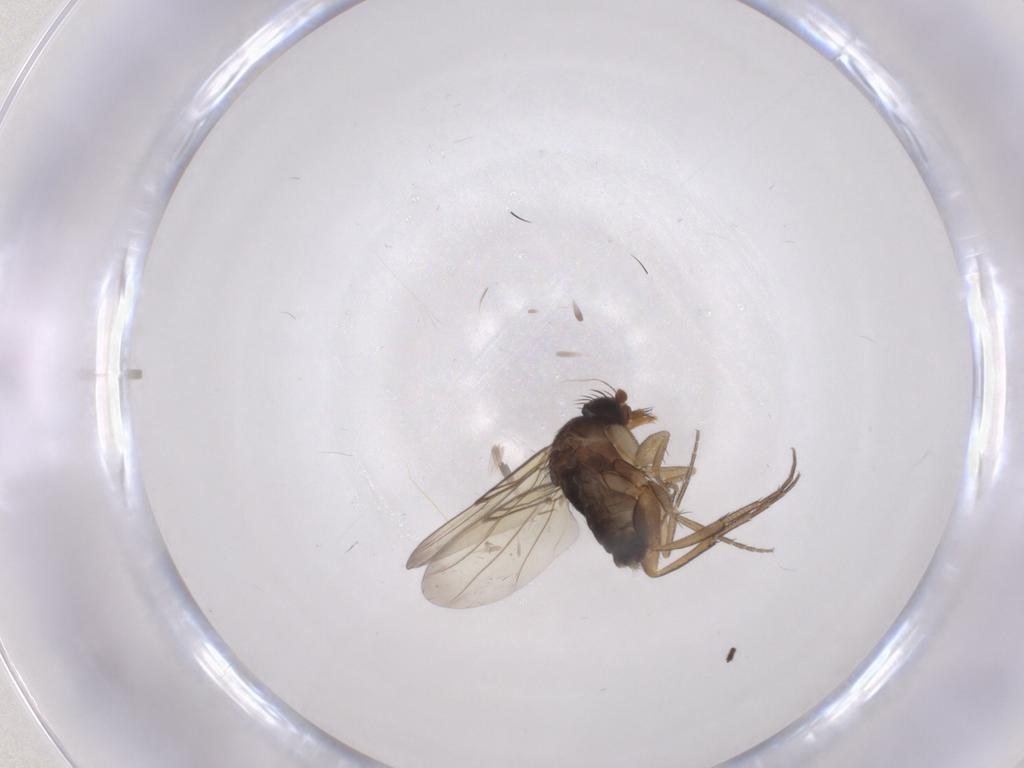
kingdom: Animalia
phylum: Arthropoda
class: Insecta
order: Diptera
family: Phoridae
